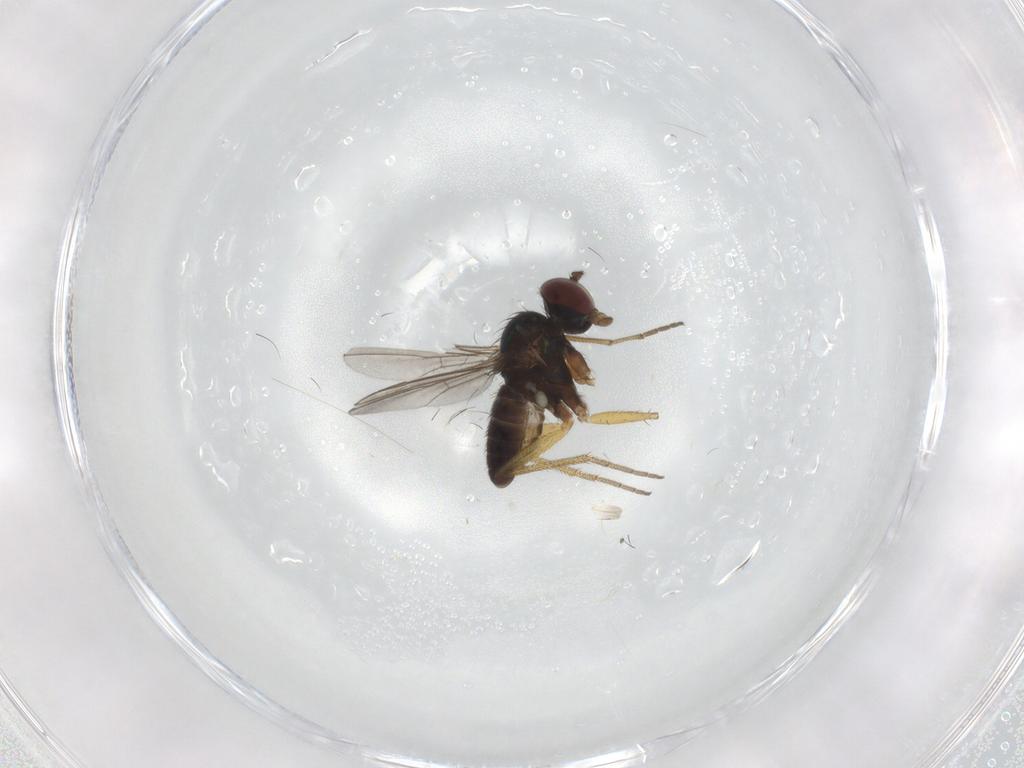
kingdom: Animalia
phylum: Arthropoda
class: Insecta
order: Diptera
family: Dolichopodidae
